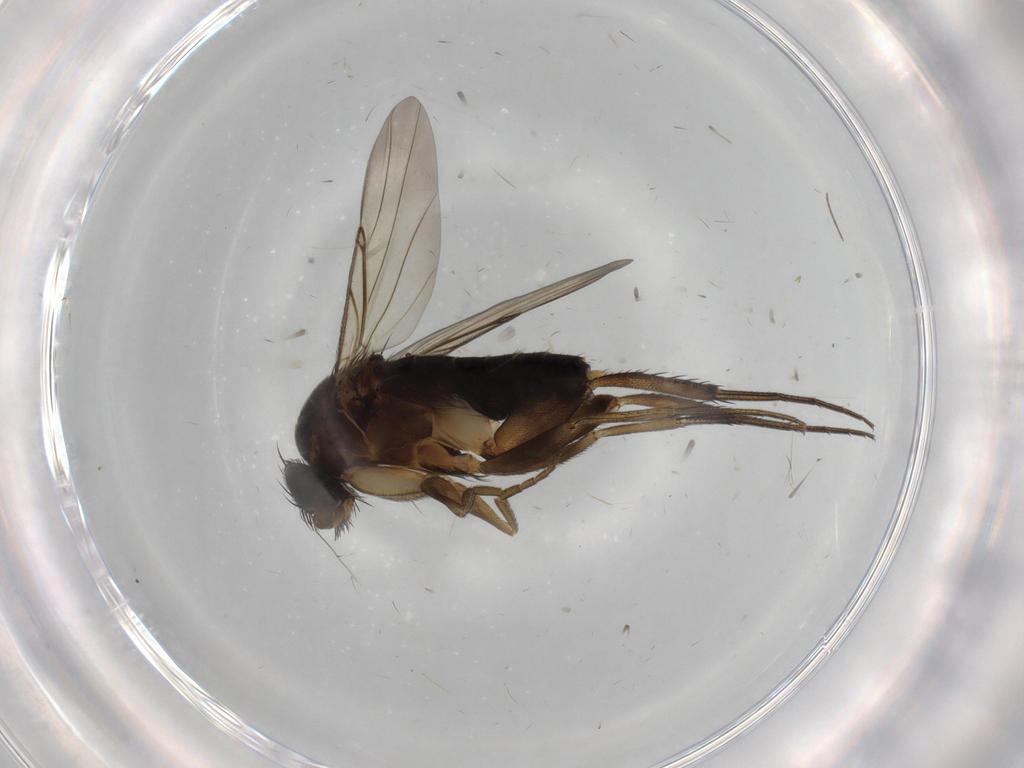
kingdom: Animalia
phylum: Arthropoda
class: Insecta
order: Diptera
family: Phoridae
